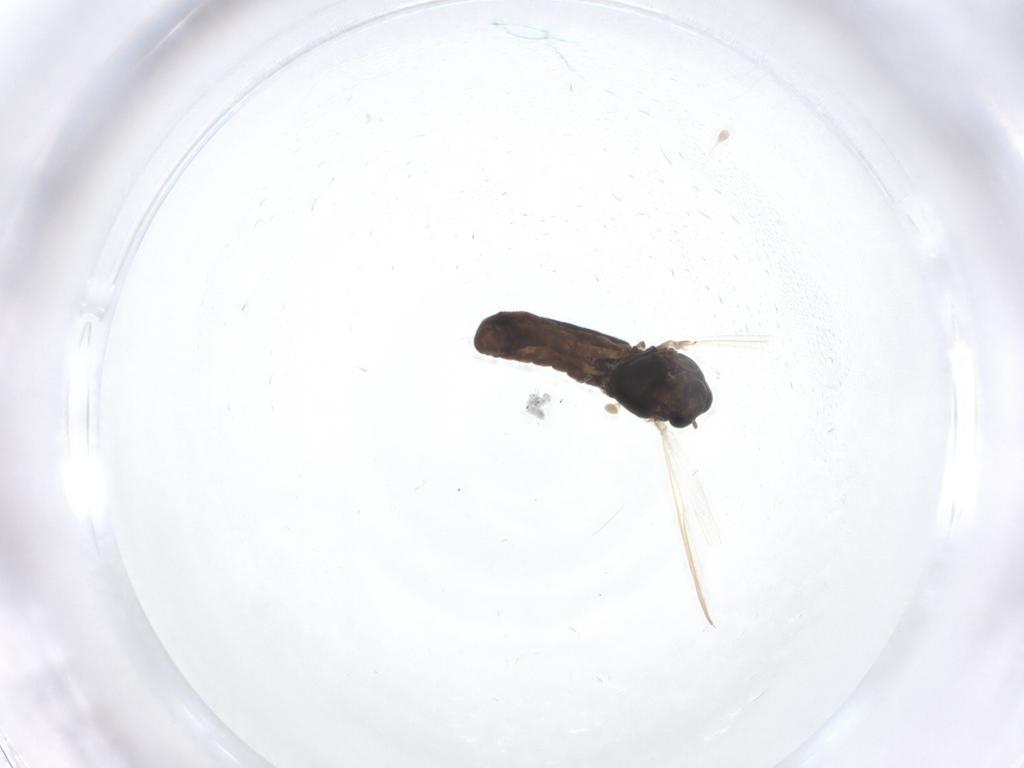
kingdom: Animalia
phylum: Arthropoda
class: Insecta
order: Diptera
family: Chironomidae
